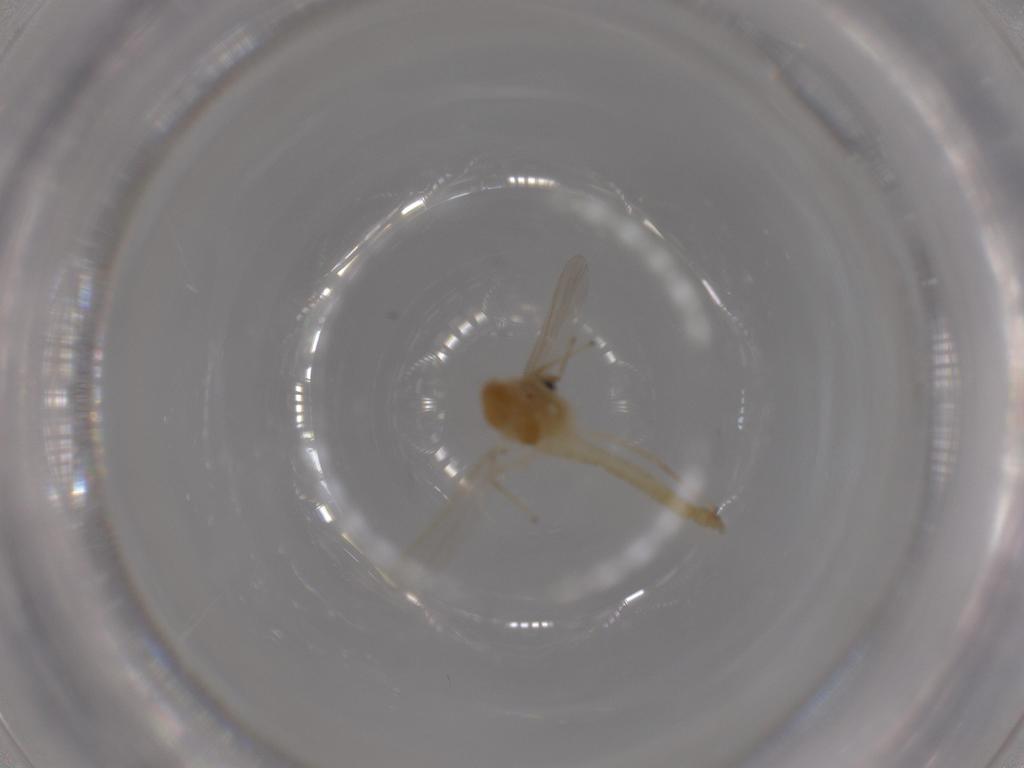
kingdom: Animalia
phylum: Arthropoda
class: Insecta
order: Diptera
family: Chironomidae
